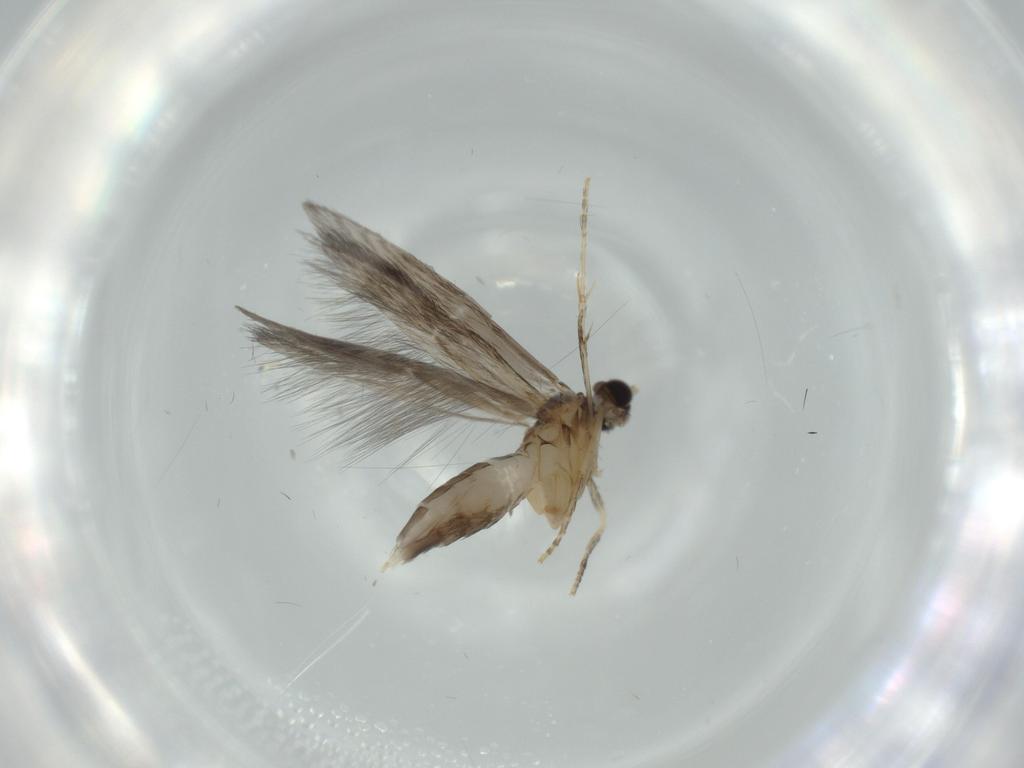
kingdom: Animalia
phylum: Arthropoda
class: Insecta
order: Trichoptera
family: Hydroptilidae
